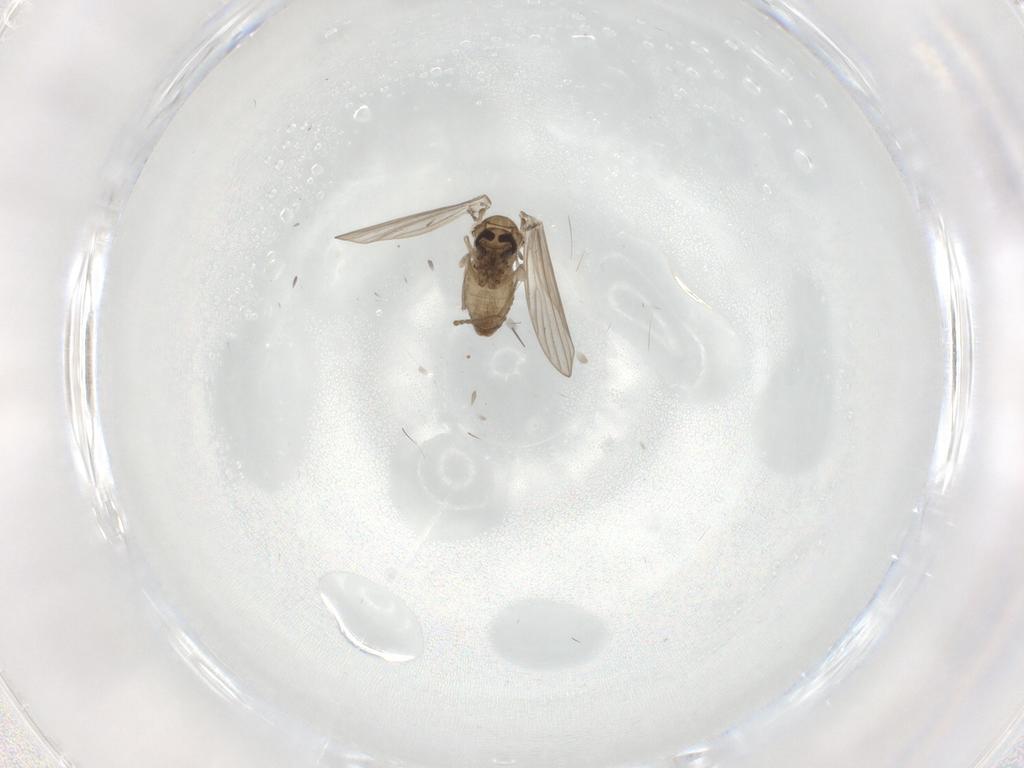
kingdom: Animalia
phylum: Arthropoda
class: Insecta
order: Diptera
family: Psychodidae
